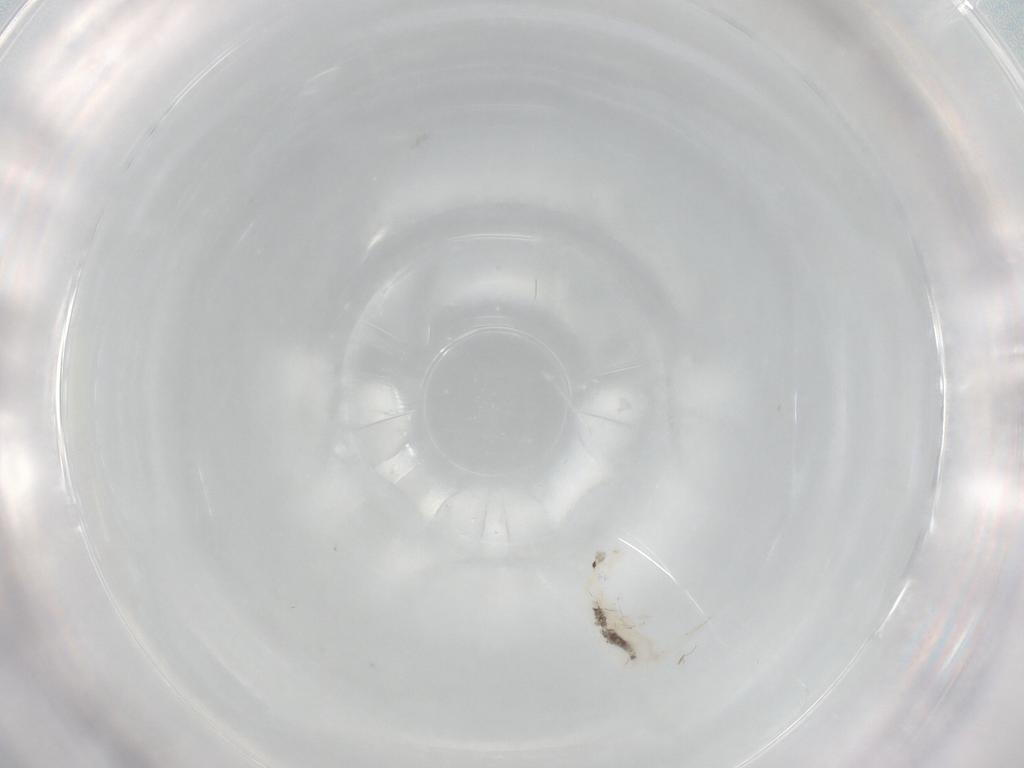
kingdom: Animalia
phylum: Arthropoda
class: Collembola
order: Entomobryomorpha
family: Entomobryidae
